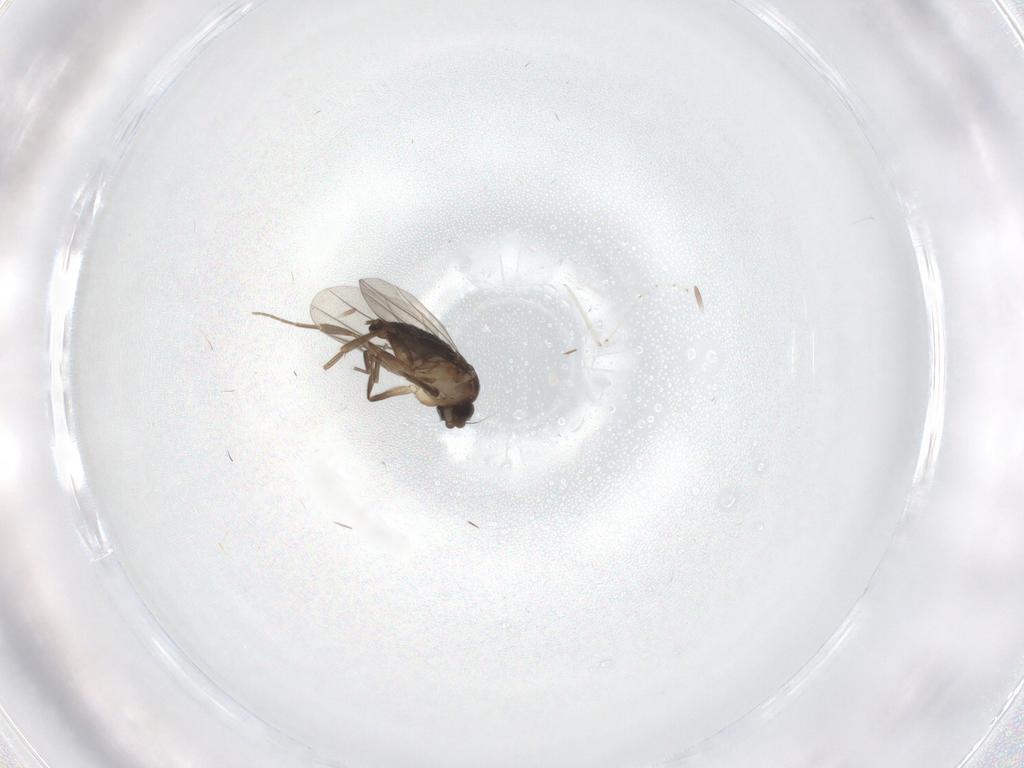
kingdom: Animalia
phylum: Arthropoda
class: Insecta
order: Diptera
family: Phoridae
